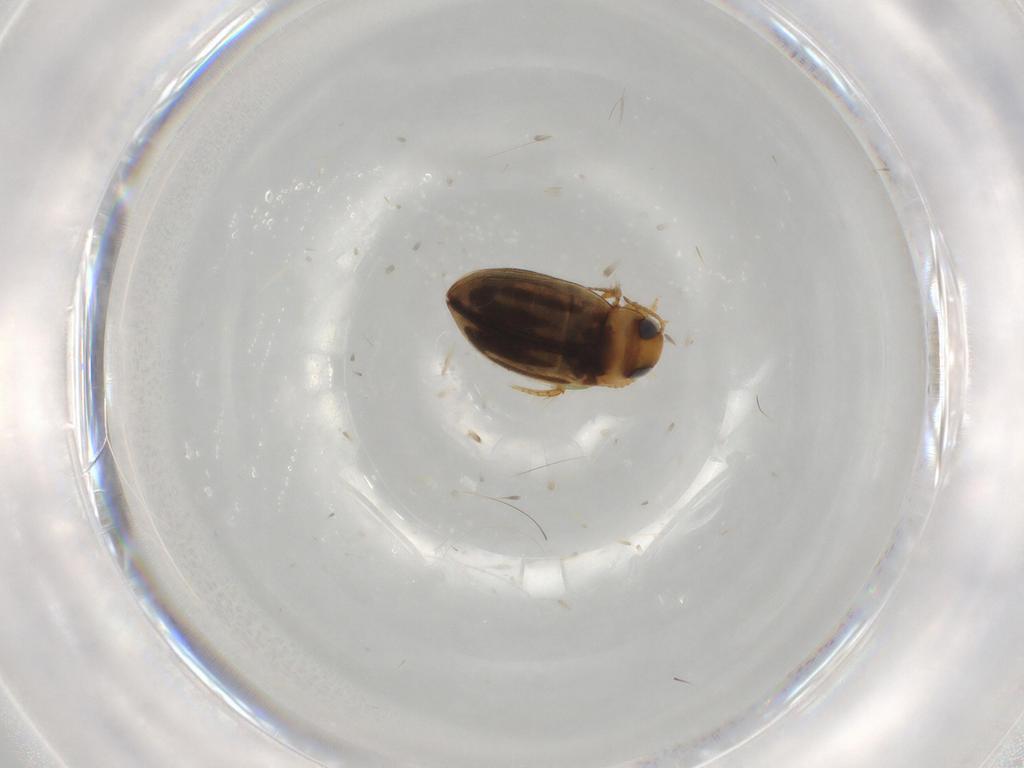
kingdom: Animalia
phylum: Arthropoda
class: Insecta
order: Coleoptera
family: Dytiscidae
